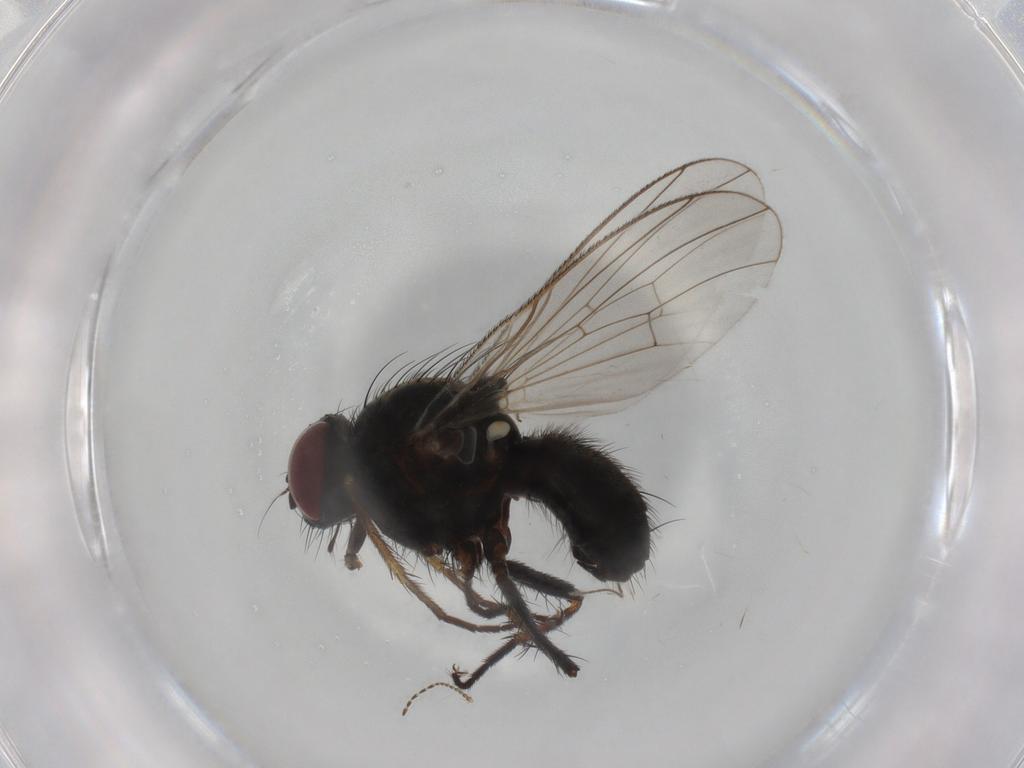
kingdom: Animalia
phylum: Arthropoda
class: Insecta
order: Diptera
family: Ceratopogonidae
